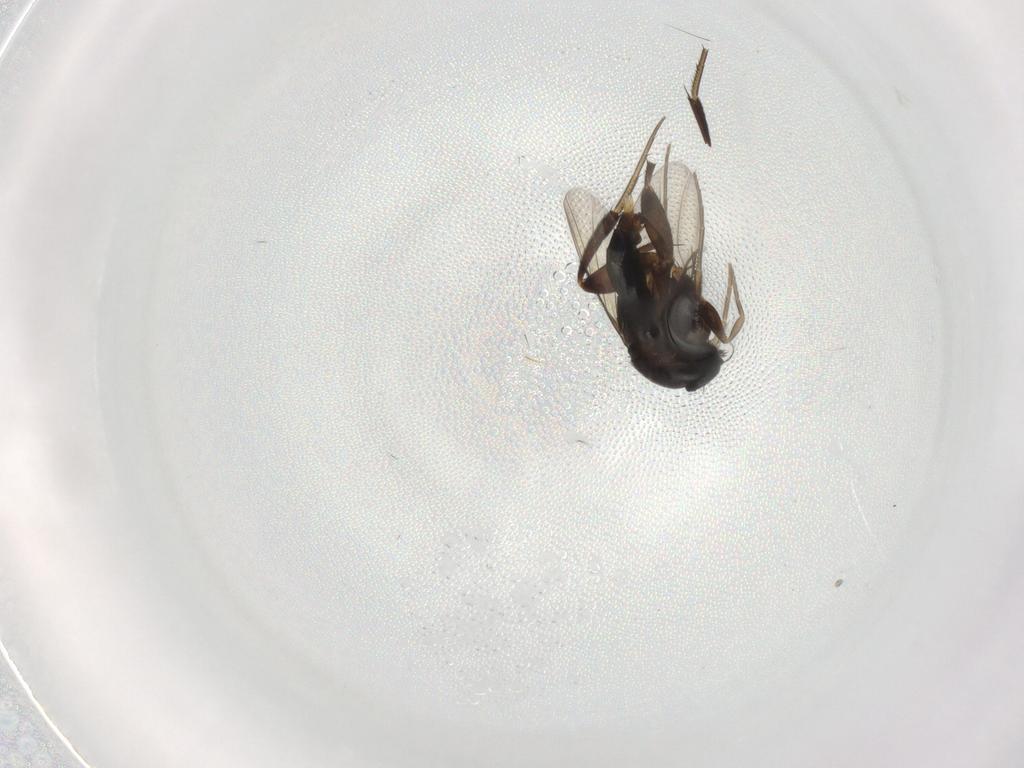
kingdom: Animalia
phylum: Arthropoda
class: Insecta
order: Diptera
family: Phoridae
